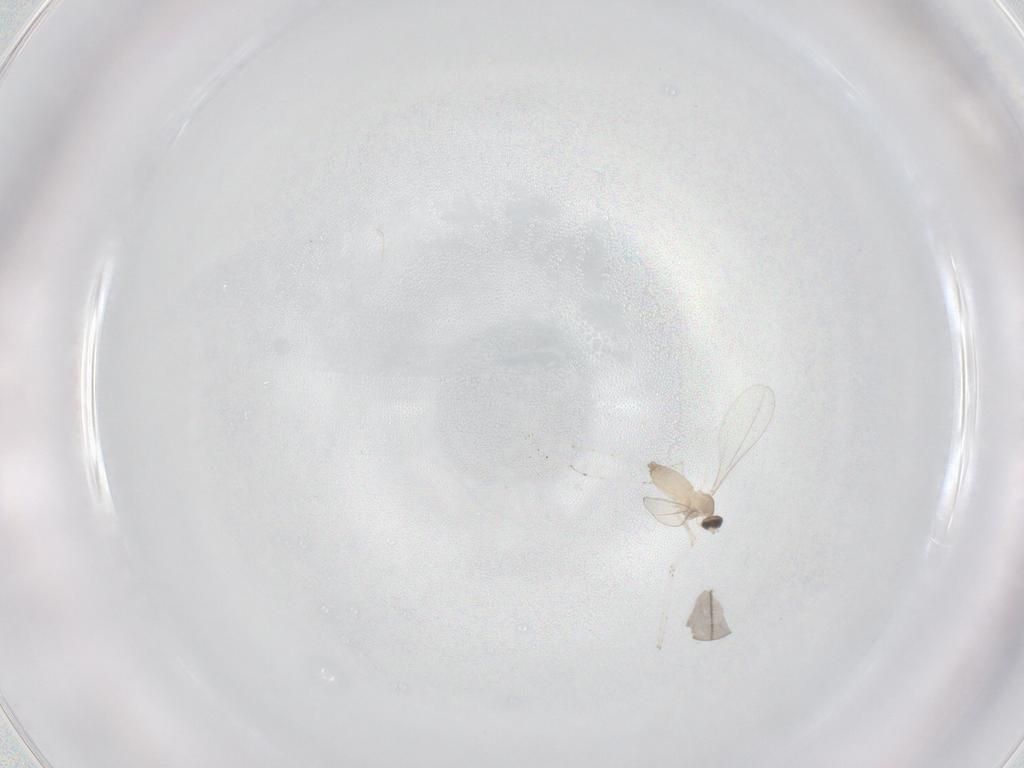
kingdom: Animalia
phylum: Arthropoda
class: Insecta
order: Diptera
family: Cecidomyiidae
